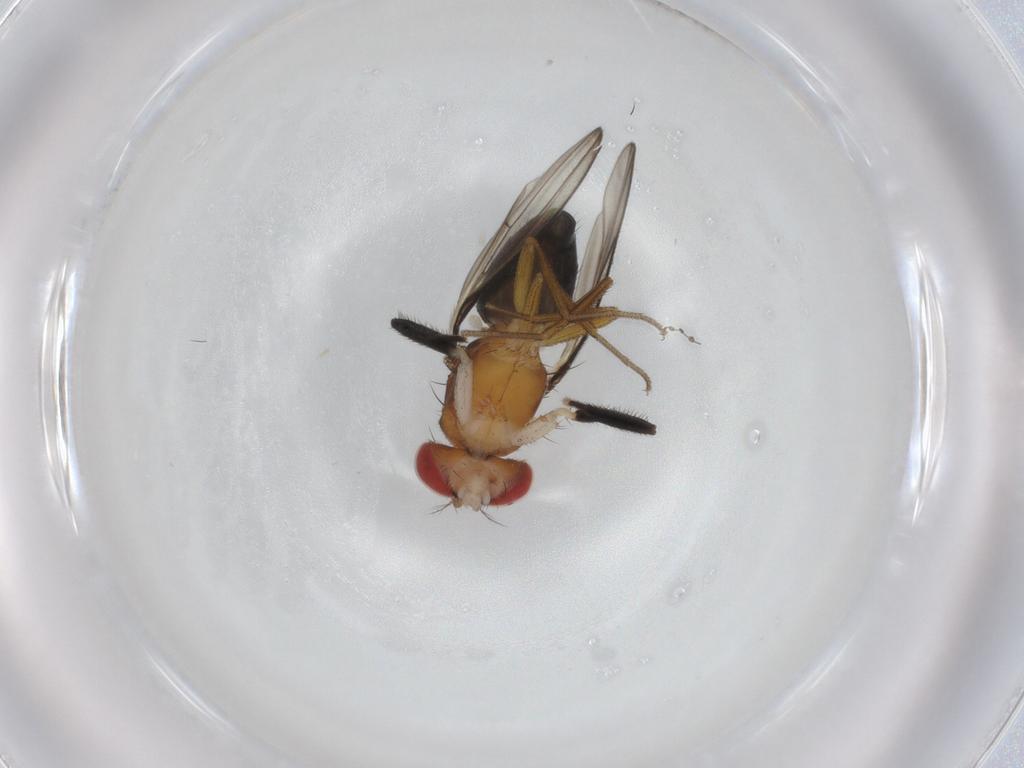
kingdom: Animalia
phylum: Arthropoda
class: Insecta
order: Diptera
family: Drosophilidae
